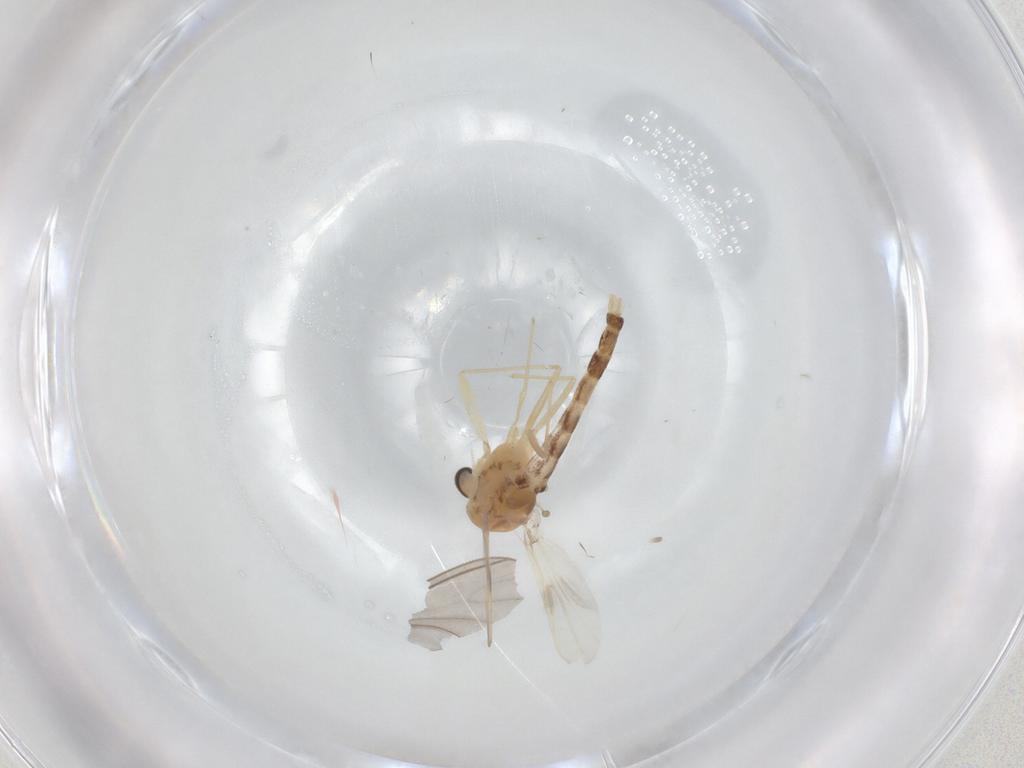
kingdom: Animalia
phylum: Arthropoda
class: Insecta
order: Diptera
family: Chironomidae
